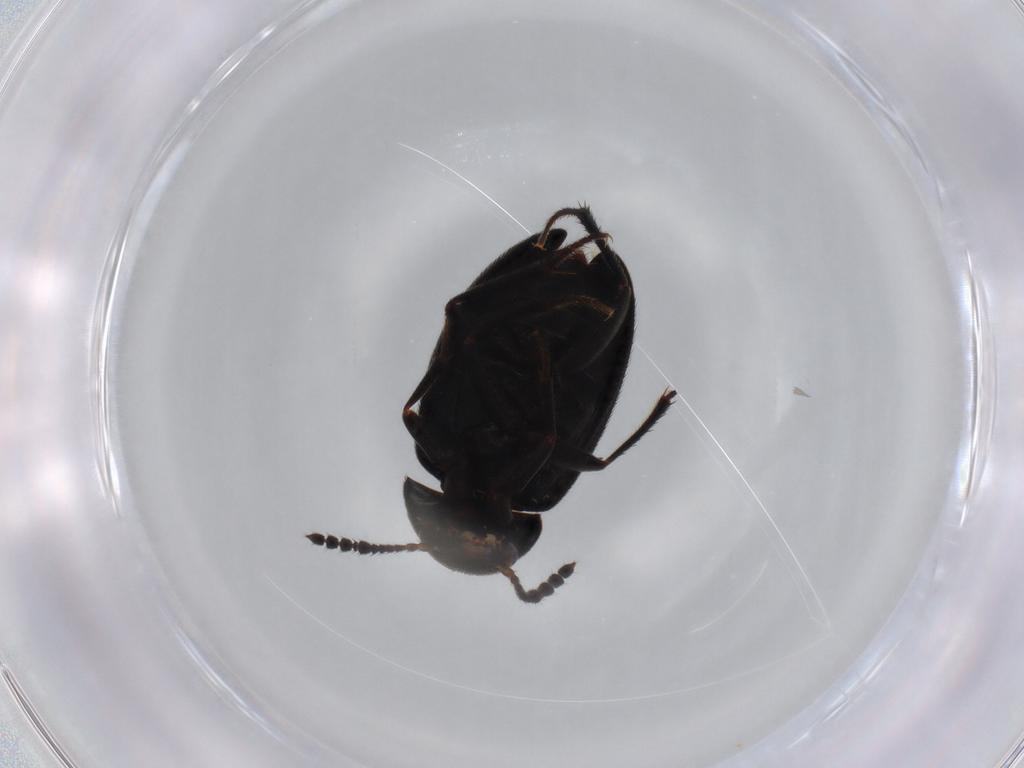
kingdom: Animalia
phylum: Arthropoda
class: Insecta
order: Coleoptera
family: Leiodidae
